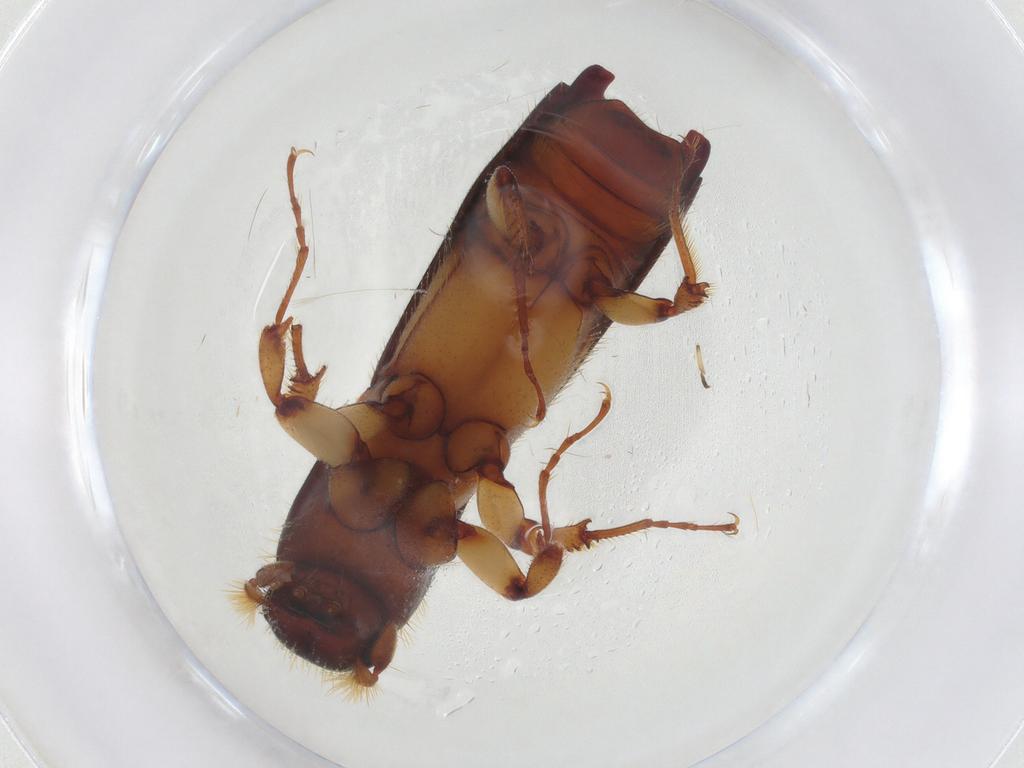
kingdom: Animalia
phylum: Arthropoda
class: Insecta
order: Coleoptera
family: Curculionidae
